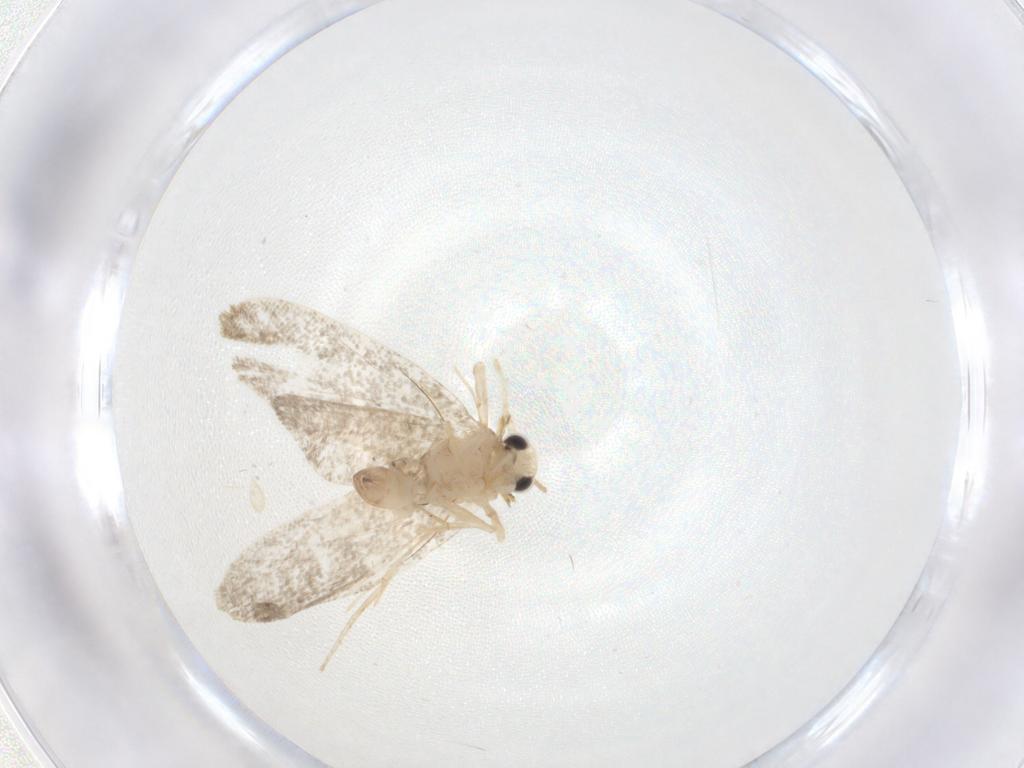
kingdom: Animalia
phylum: Arthropoda
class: Insecta
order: Lepidoptera
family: Psychidae
